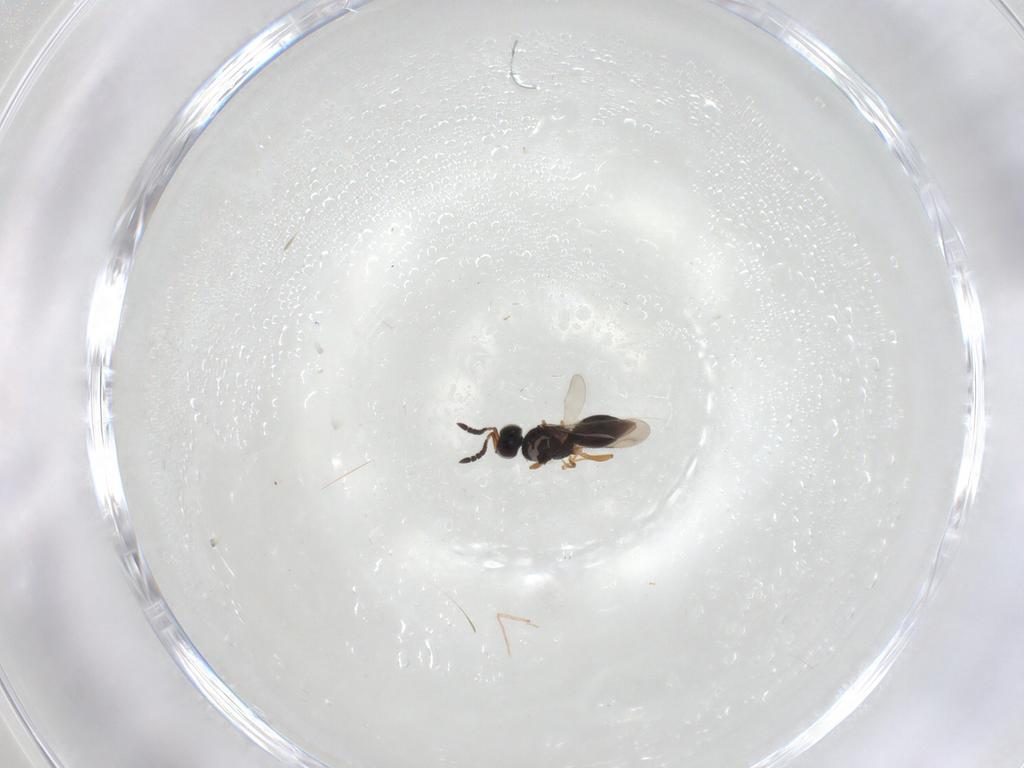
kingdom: Animalia
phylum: Arthropoda
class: Insecta
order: Hymenoptera
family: Ceraphronidae
